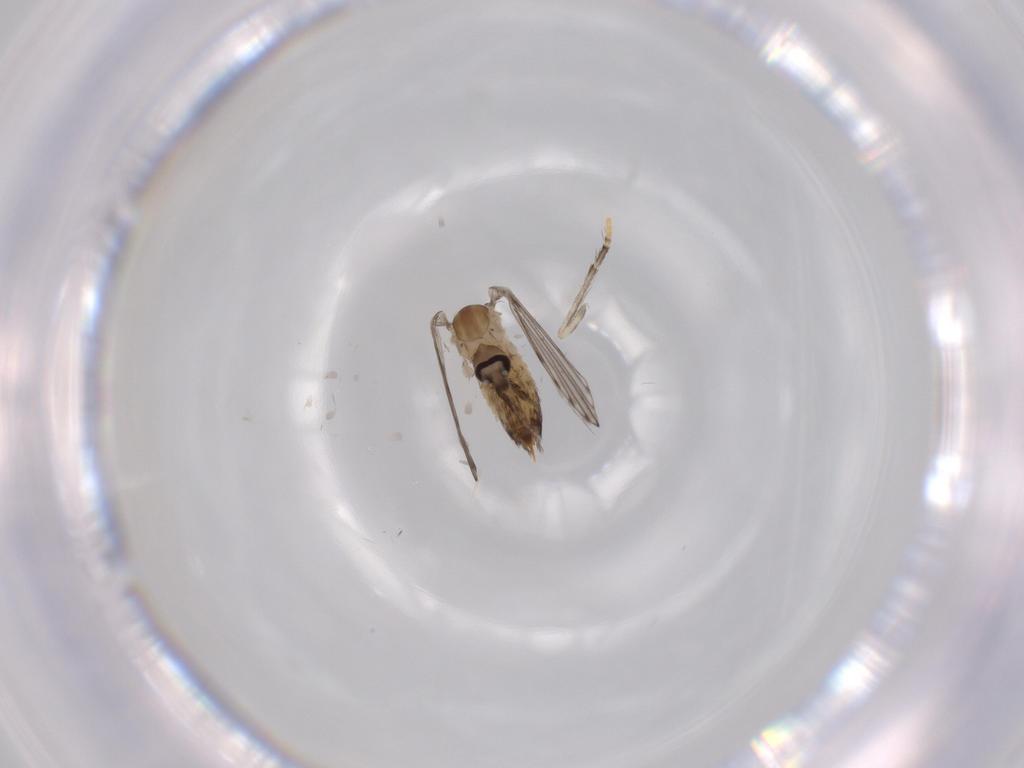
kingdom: Animalia
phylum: Arthropoda
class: Insecta
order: Diptera
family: Psychodidae
